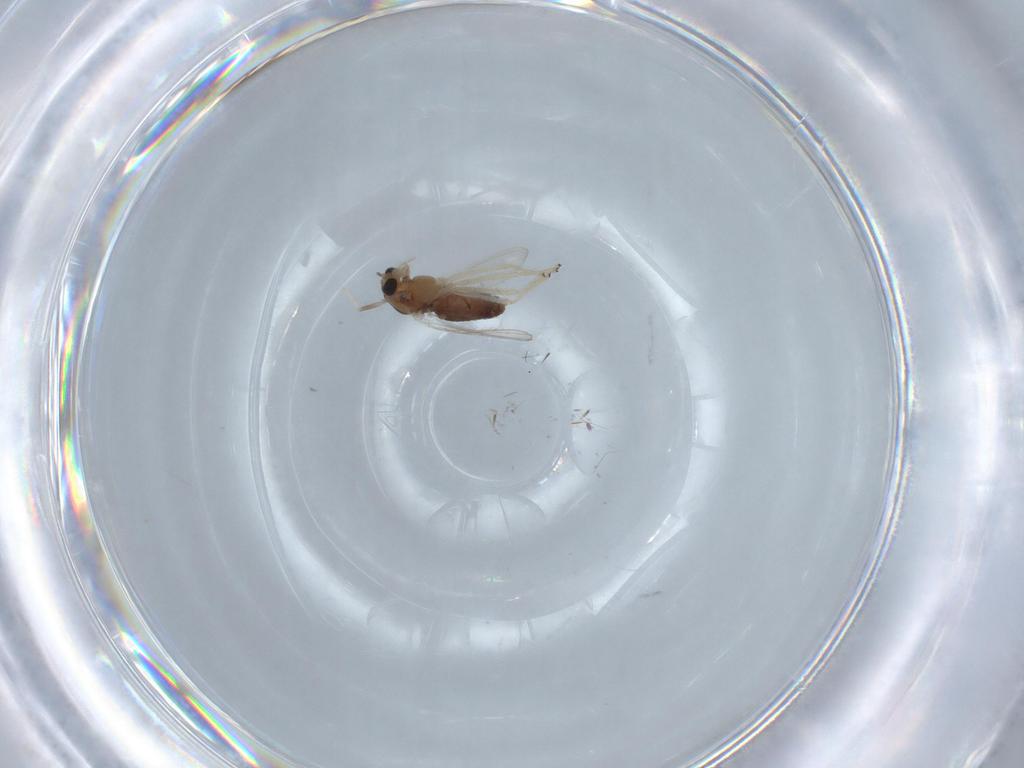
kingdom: Animalia
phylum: Arthropoda
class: Insecta
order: Diptera
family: Chironomidae
